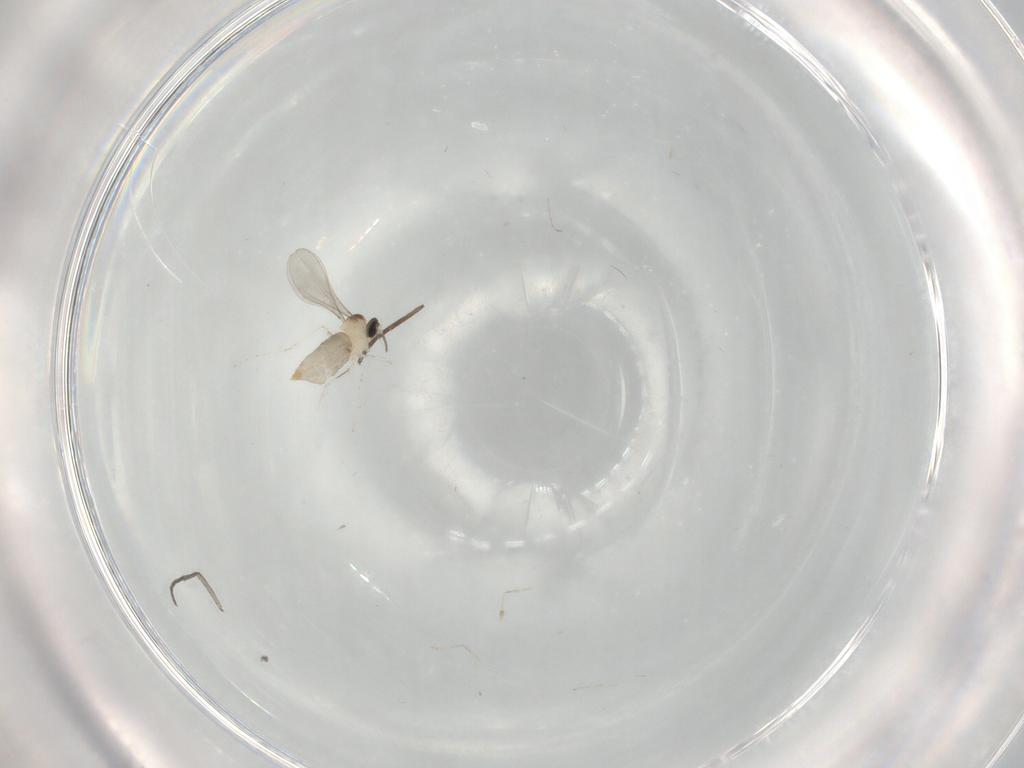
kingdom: Animalia
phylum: Arthropoda
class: Insecta
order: Diptera
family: Cecidomyiidae
